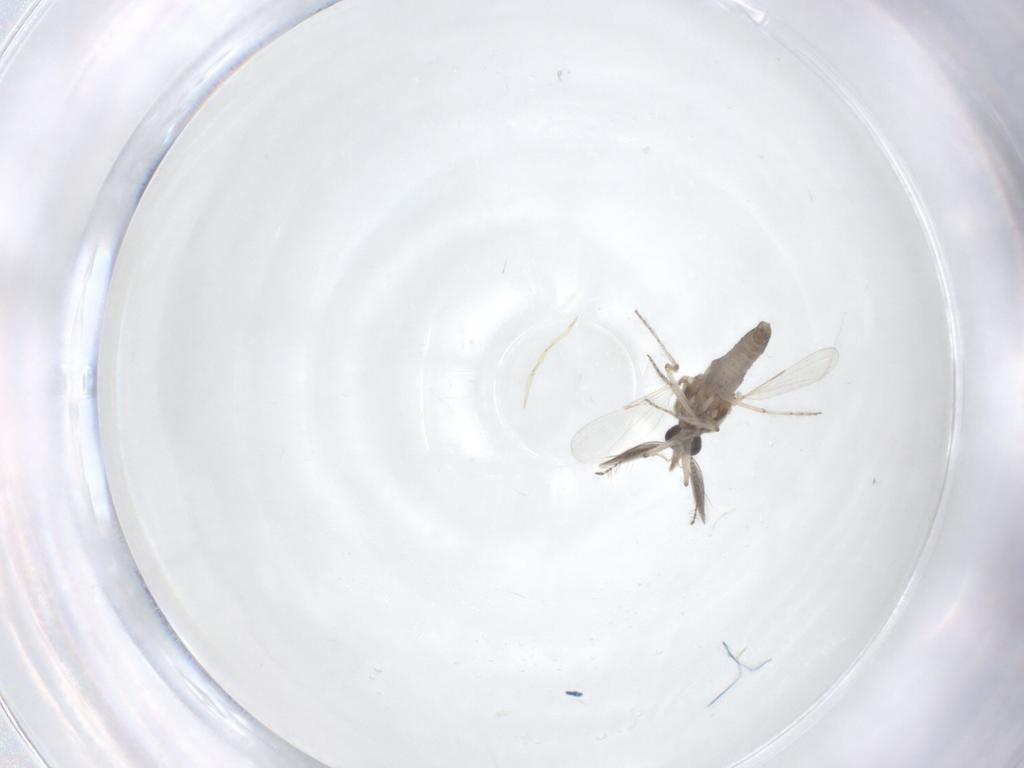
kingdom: Animalia
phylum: Arthropoda
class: Insecta
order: Diptera
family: Ceratopogonidae
